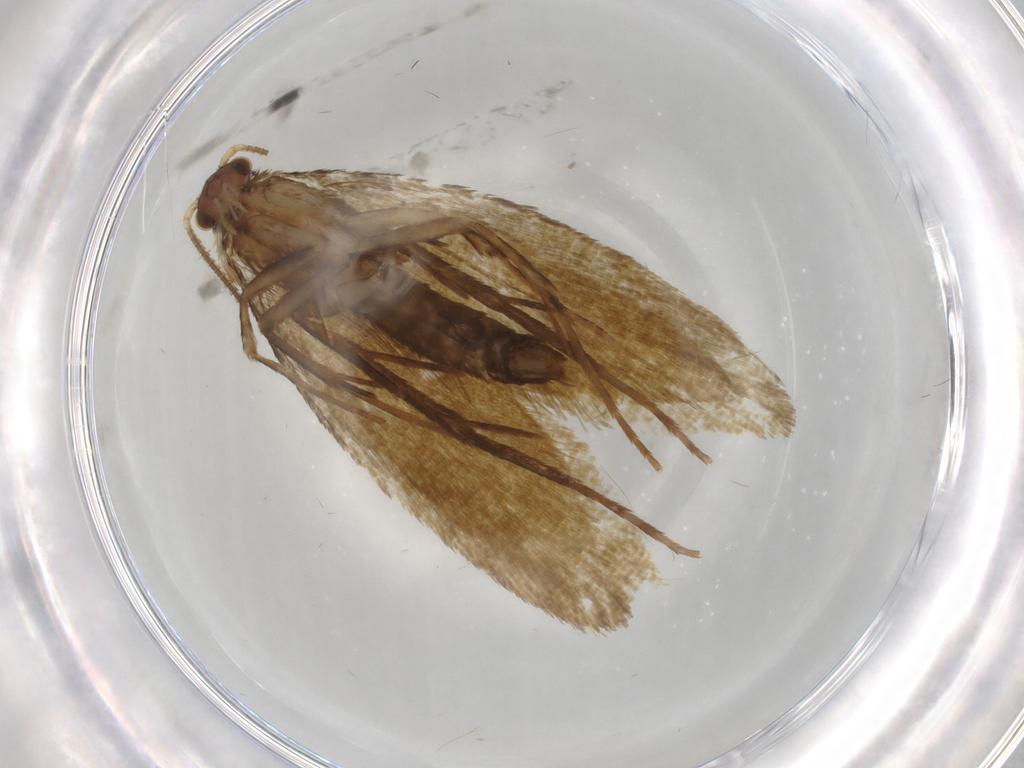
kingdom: Animalia
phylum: Arthropoda
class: Insecta
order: Lepidoptera
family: Tineidae
